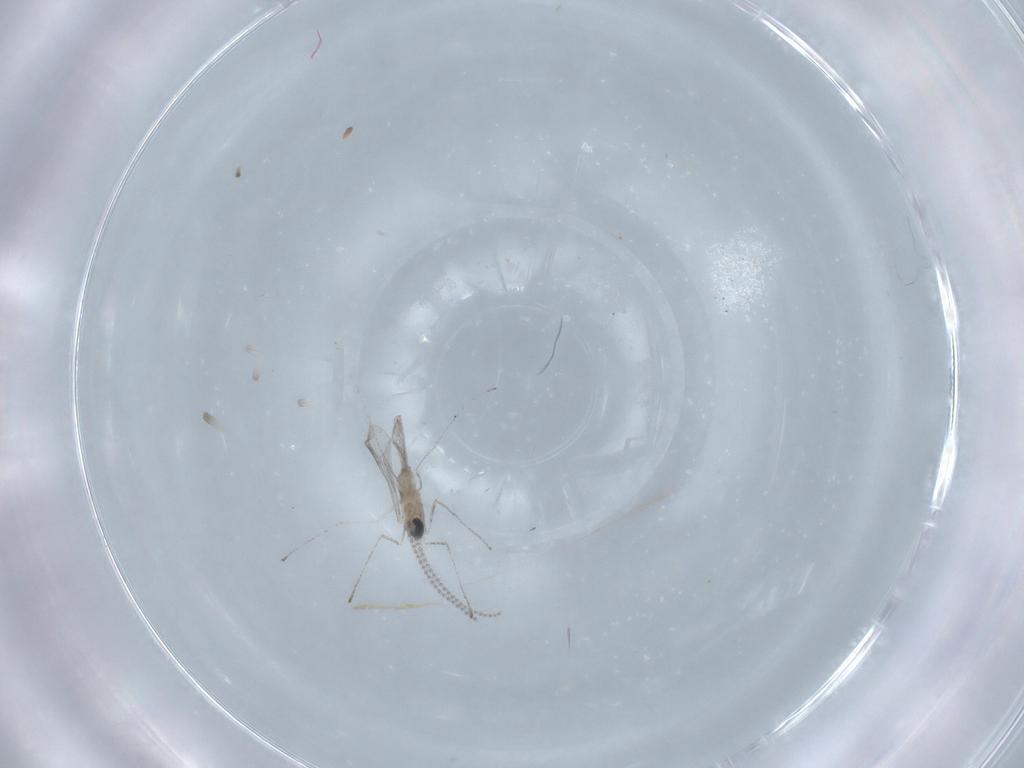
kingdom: Animalia
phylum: Arthropoda
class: Insecta
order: Diptera
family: Cecidomyiidae
